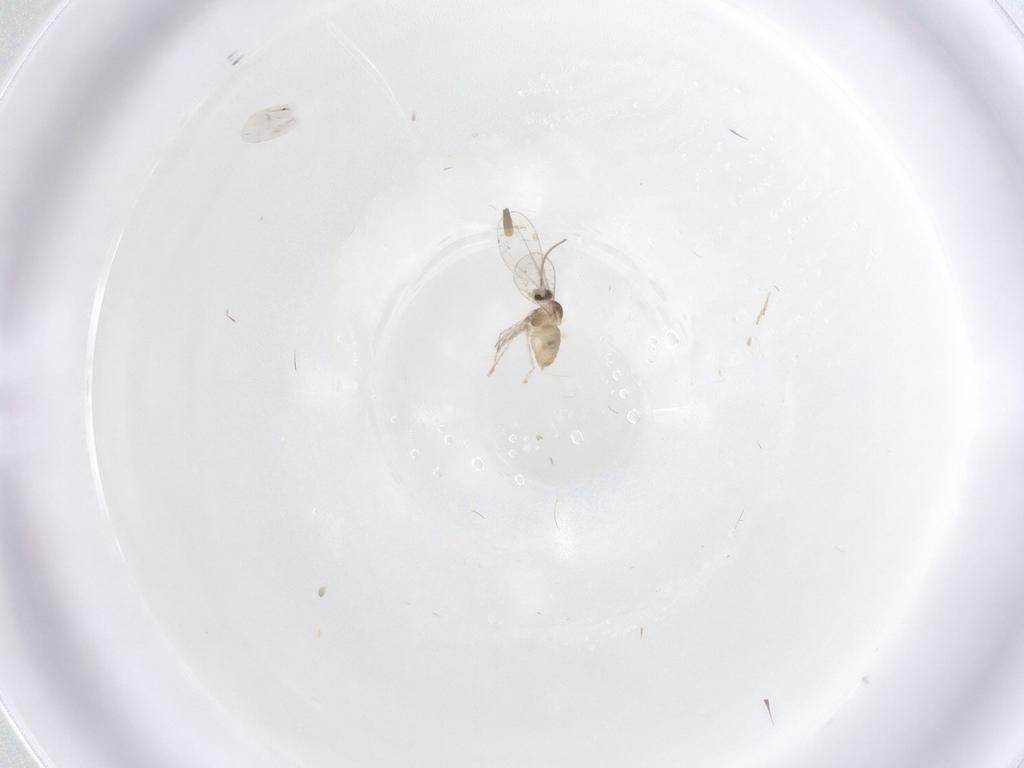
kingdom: Animalia
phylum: Arthropoda
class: Insecta
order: Diptera
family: Cecidomyiidae
